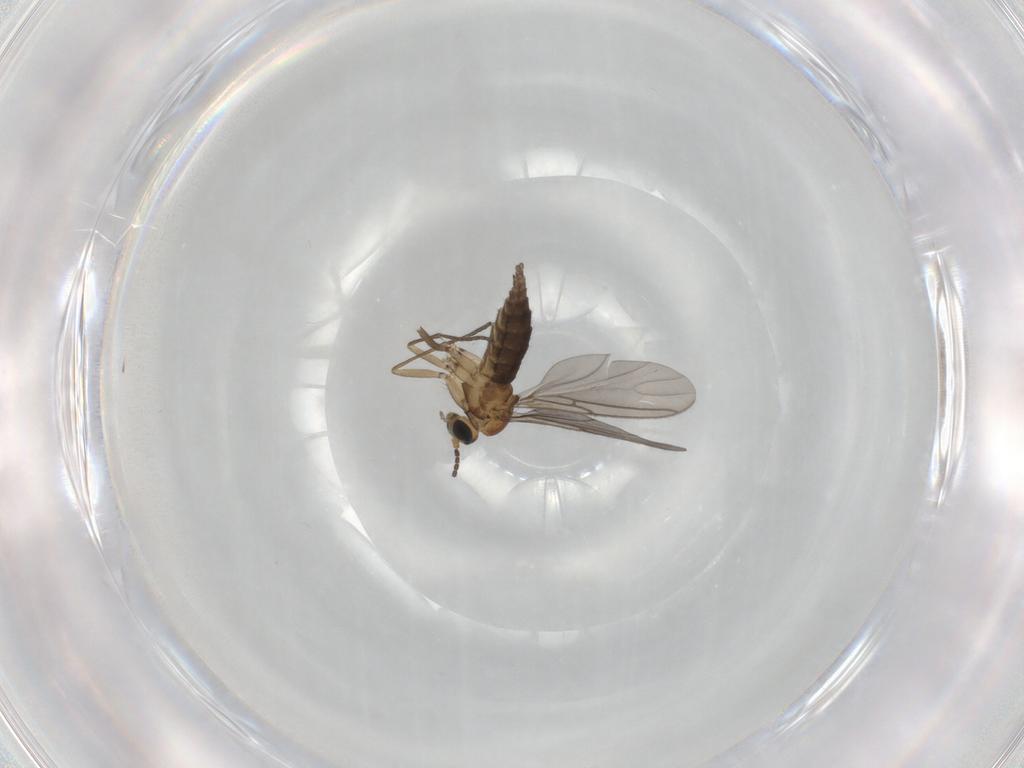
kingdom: Animalia
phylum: Arthropoda
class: Insecta
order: Diptera
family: Sciaridae
